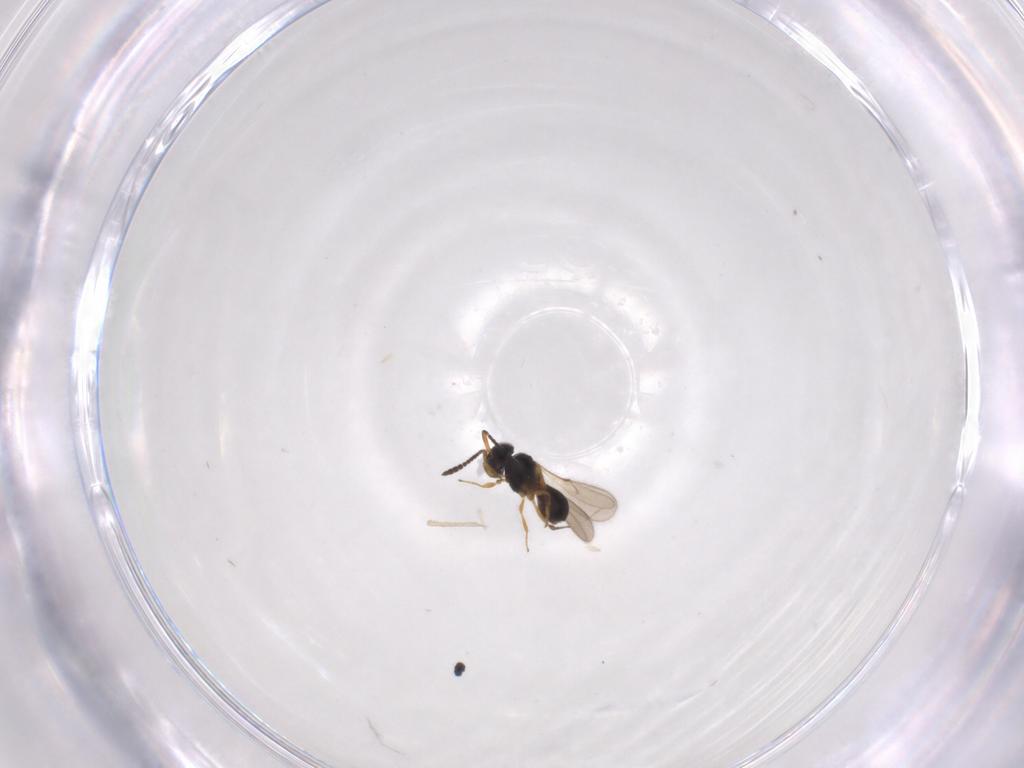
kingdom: Animalia
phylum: Arthropoda
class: Insecta
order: Hymenoptera
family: Scelionidae
